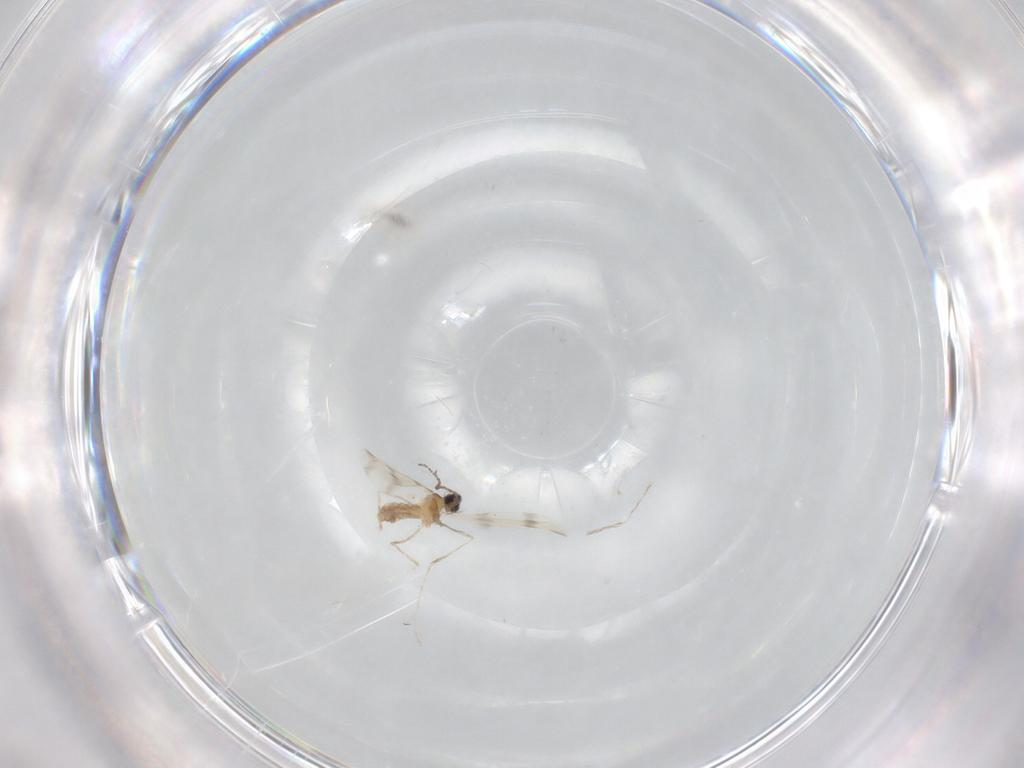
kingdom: Animalia
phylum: Arthropoda
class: Insecta
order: Diptera
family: Cecidomyiidae
